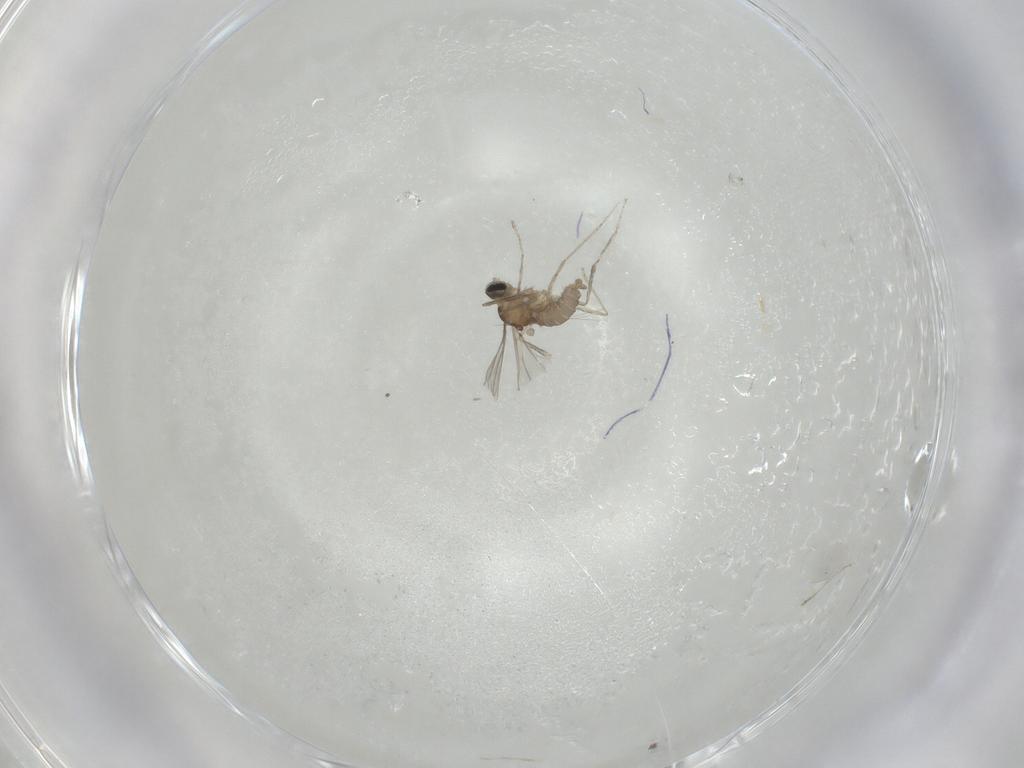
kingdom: Animalia
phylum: Arthropoda
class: Insecta
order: Diptera
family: Cecidomyiidae
